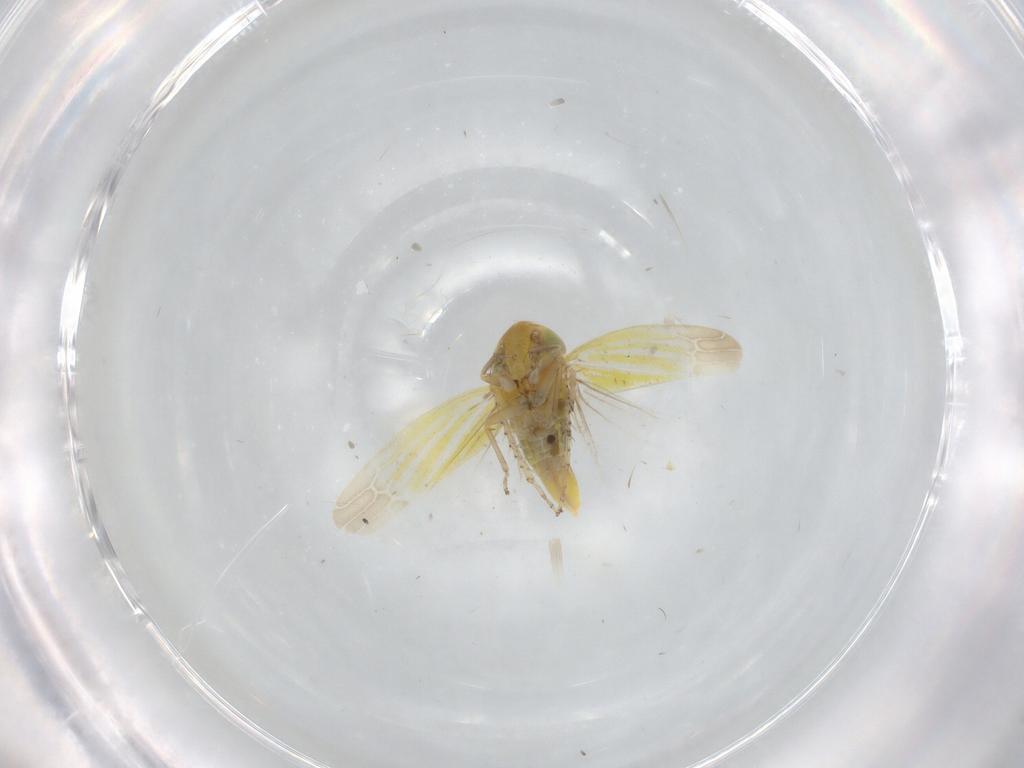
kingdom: Animalia
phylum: Arthropoda
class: Insecta
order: Hemiptera
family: Cicadellidae
